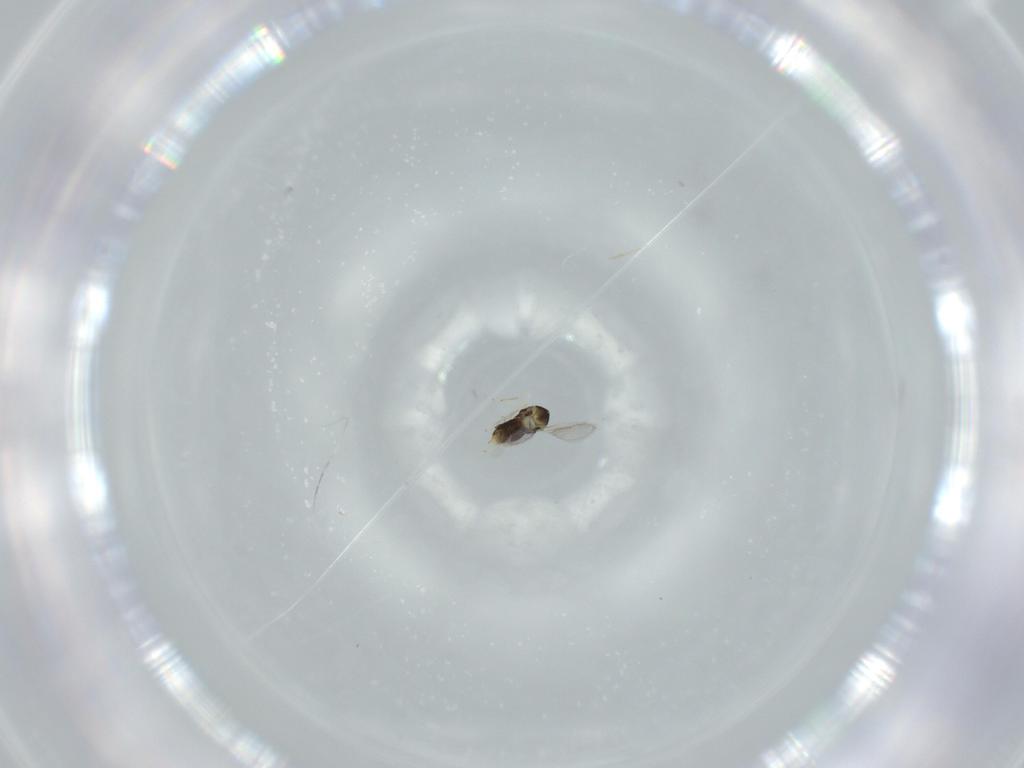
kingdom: Animalia
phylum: Arthropoda
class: Insecta
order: Hymenoptera
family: Aphelinidae
